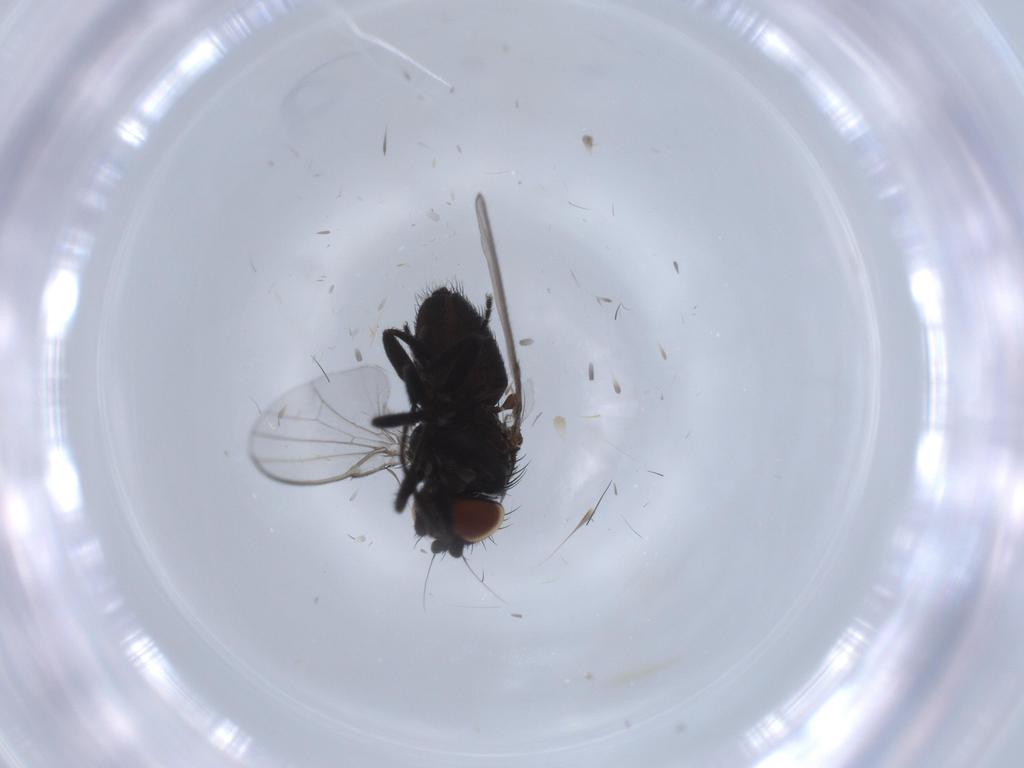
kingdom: Animalia
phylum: Arthropoda
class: Insecta
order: Diptera
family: Milichiidae
